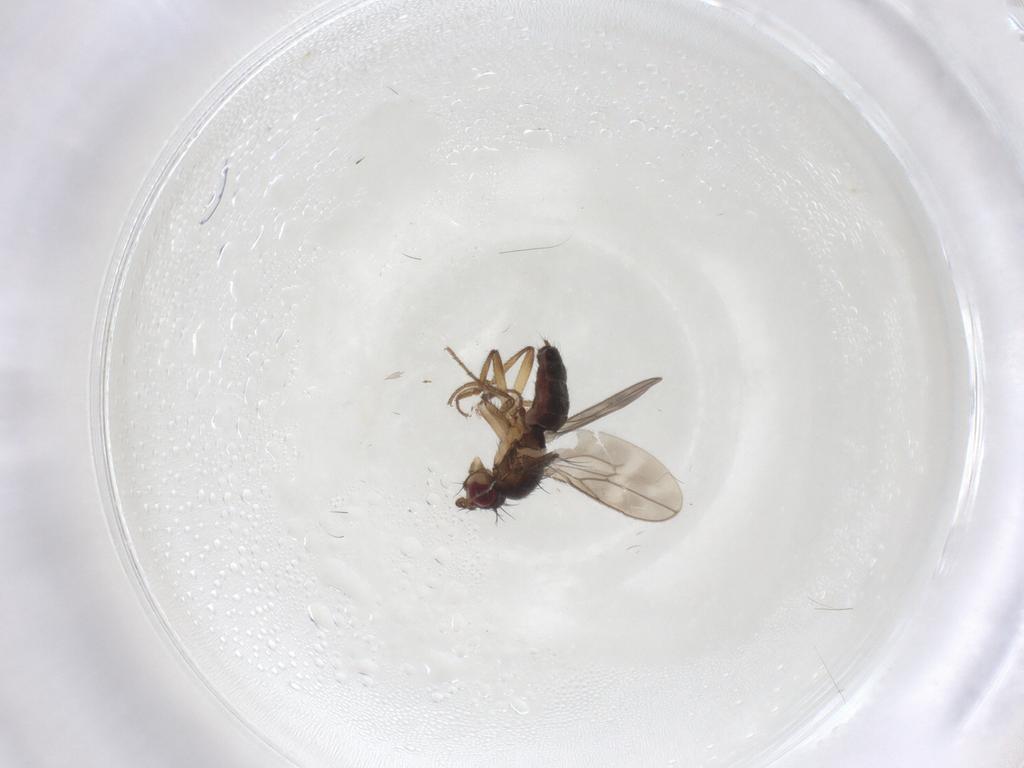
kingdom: Animalia
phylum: Arthropoda
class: Insecta
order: Diptera
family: Sphaeroceridae
